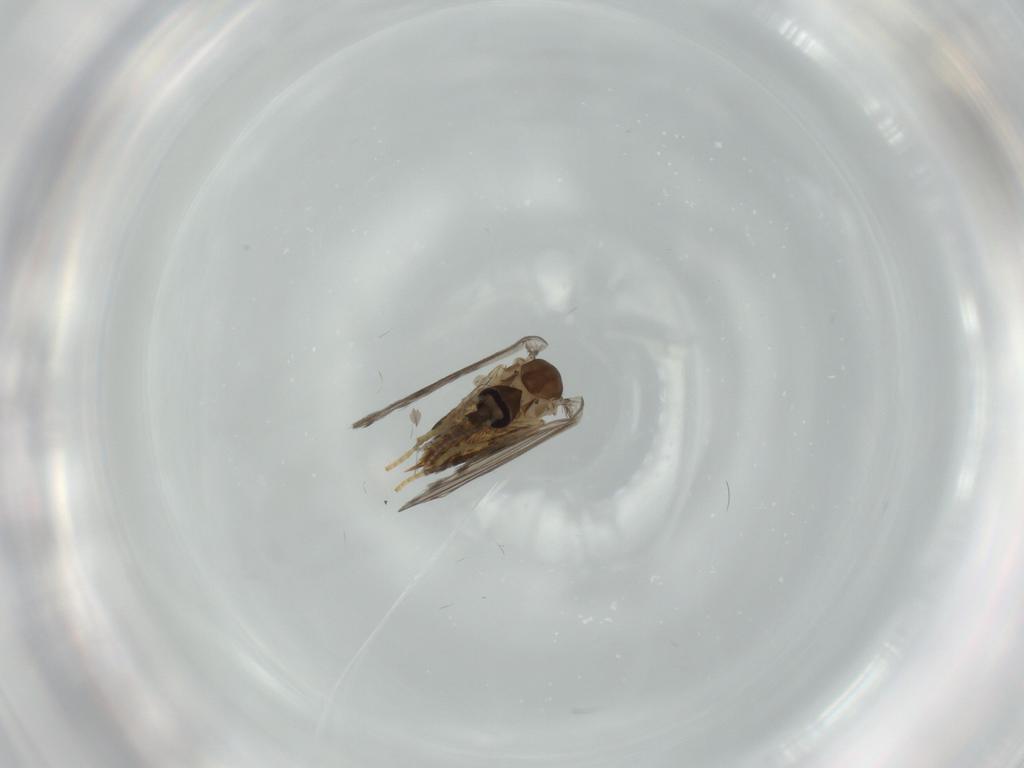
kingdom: Animalia
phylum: Arthropoda
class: Insecta
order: Diptera
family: Psychodidae
